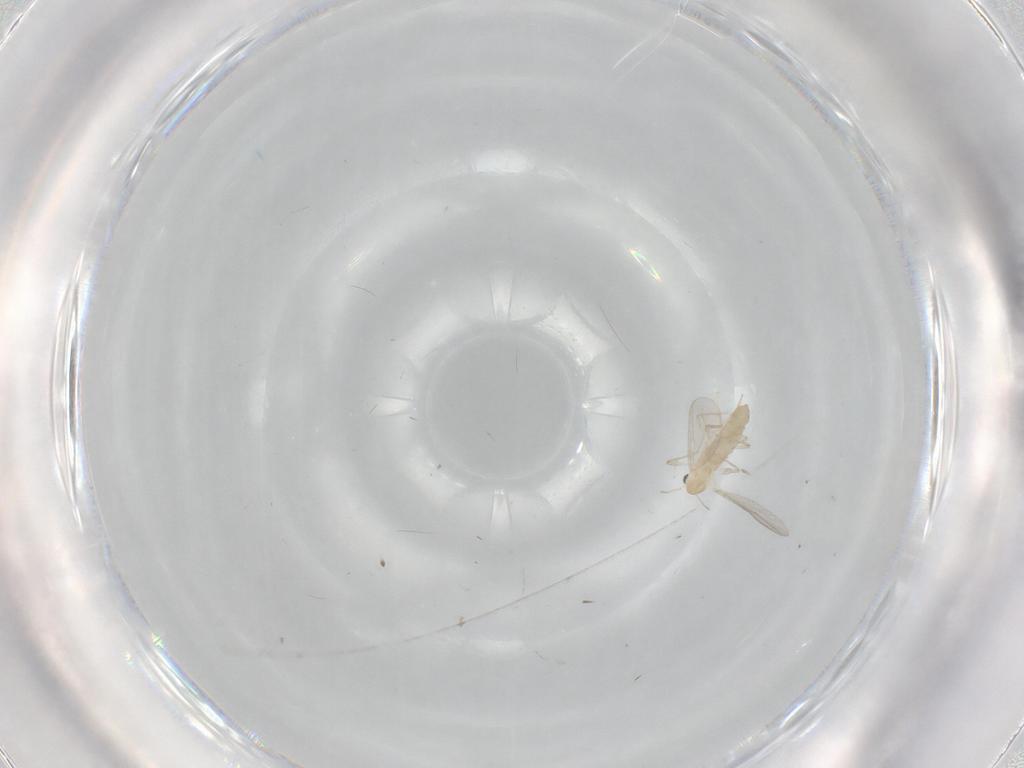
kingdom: Animalia
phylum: Arthropoda
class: Insecta
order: Diptera
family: Chironomidae
